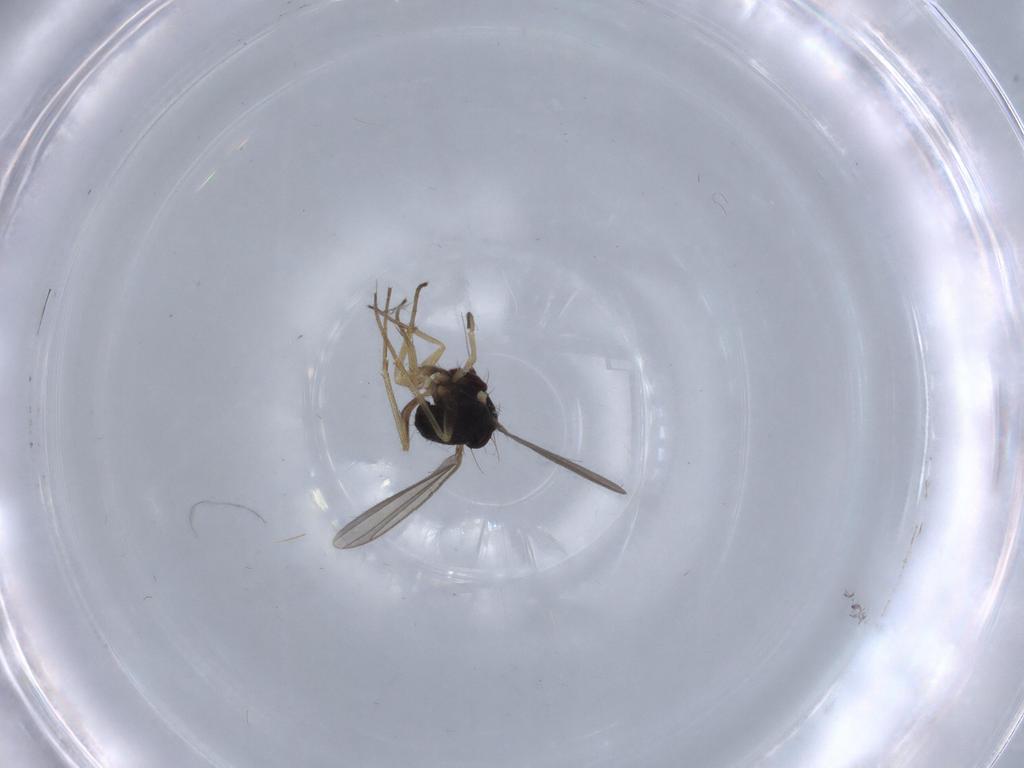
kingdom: Animalia
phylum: Arthropoda
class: Insecta
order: Diptera
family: Dolichopodidae
